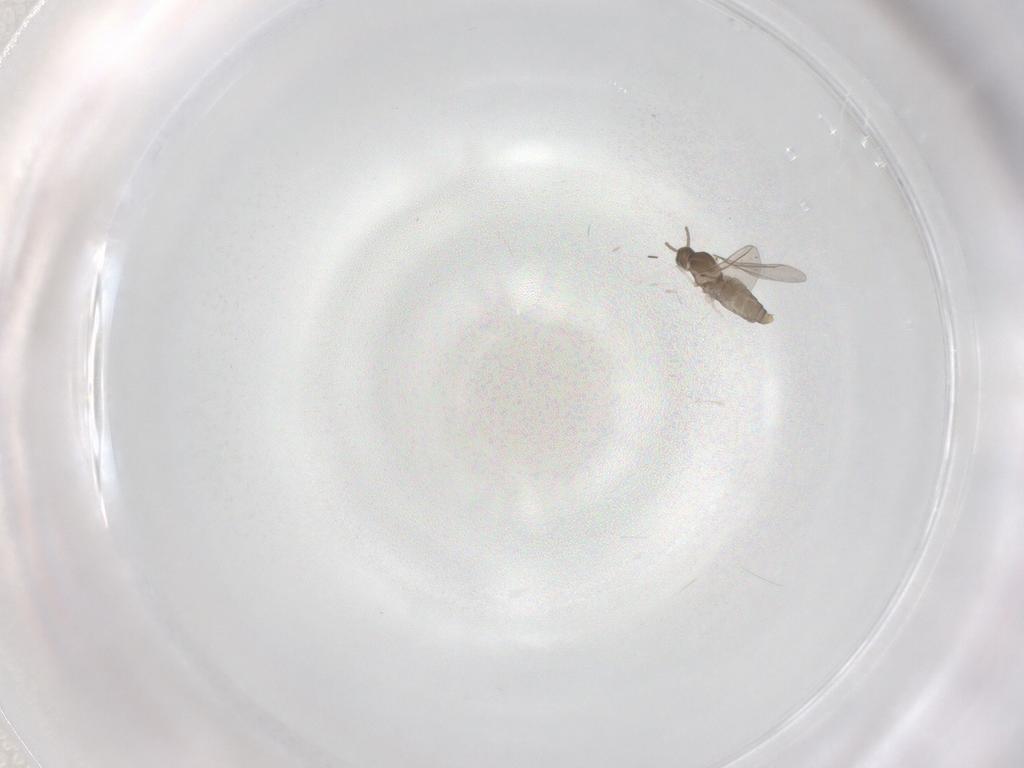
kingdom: Animalia
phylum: Arthropoda
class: Insecta
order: Diptera
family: Cecidomyiidae
